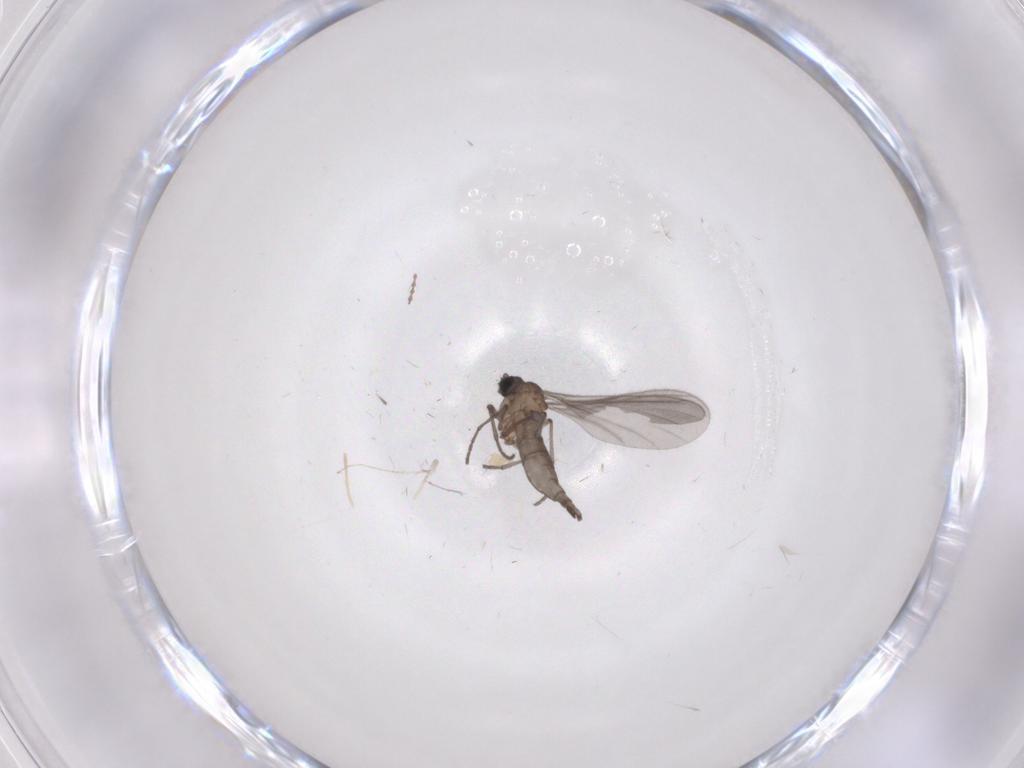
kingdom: Animalia
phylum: Arthropoda
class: Insecta
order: Diptera
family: Sciaridae
